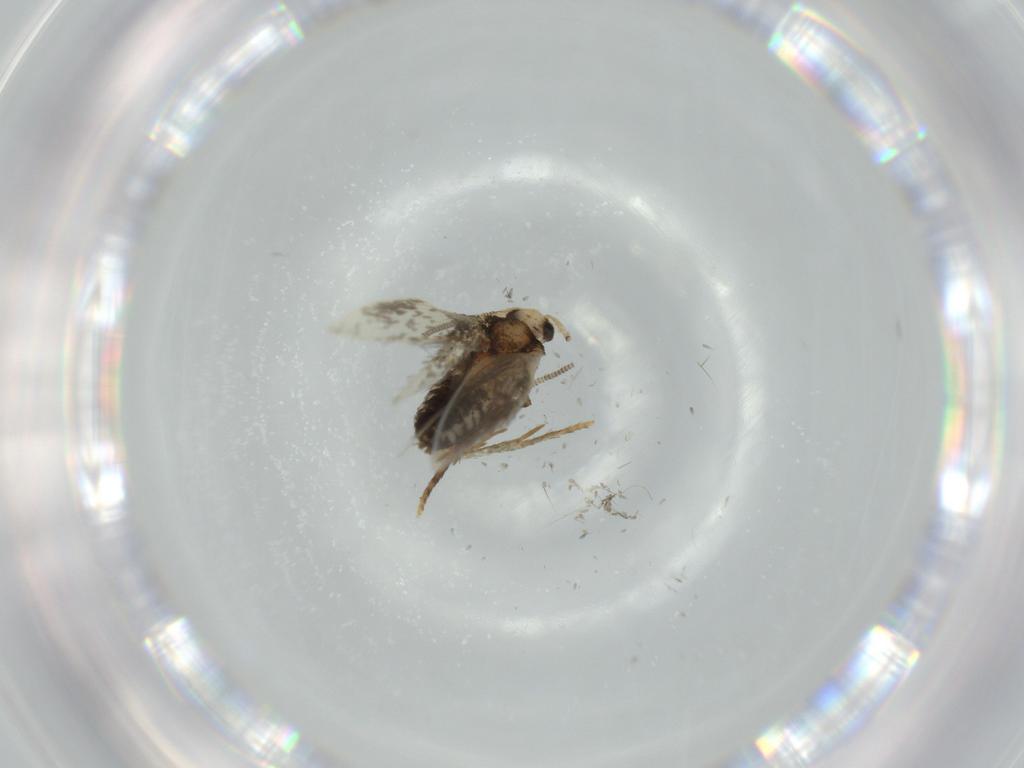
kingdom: Animalia
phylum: Arthropoda
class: Insecta
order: Lepidoptera
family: Nepticulidae
